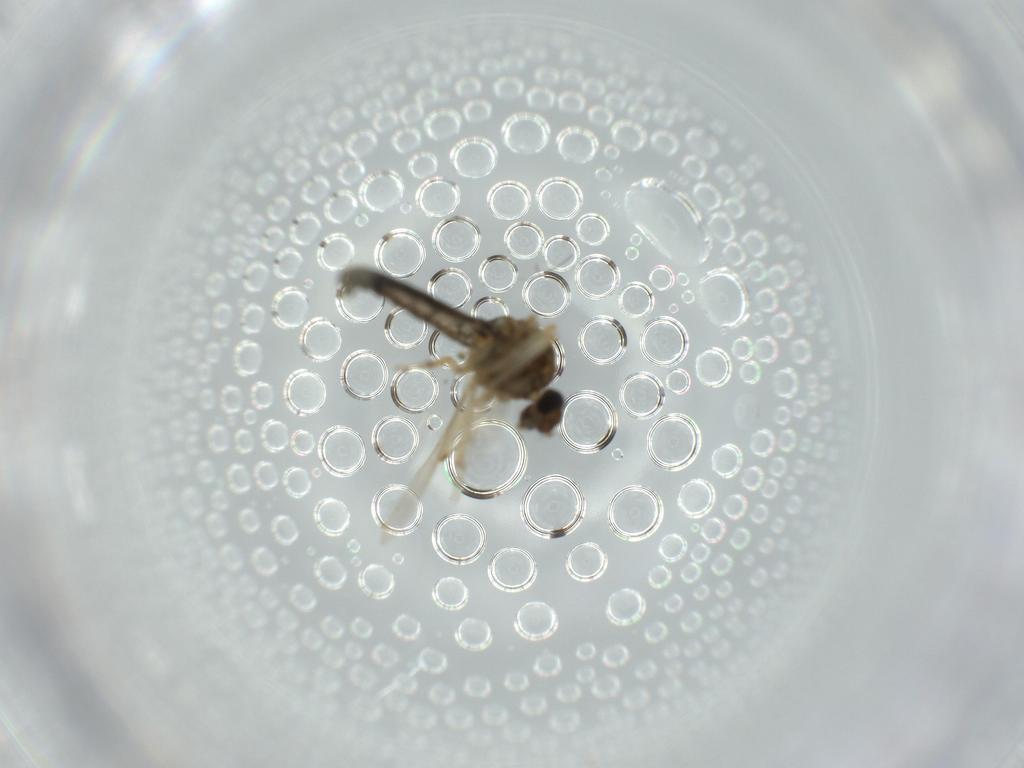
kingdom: Animalia
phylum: Arthropoda
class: Insecta
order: Diptera
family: Ceratopogonidae
